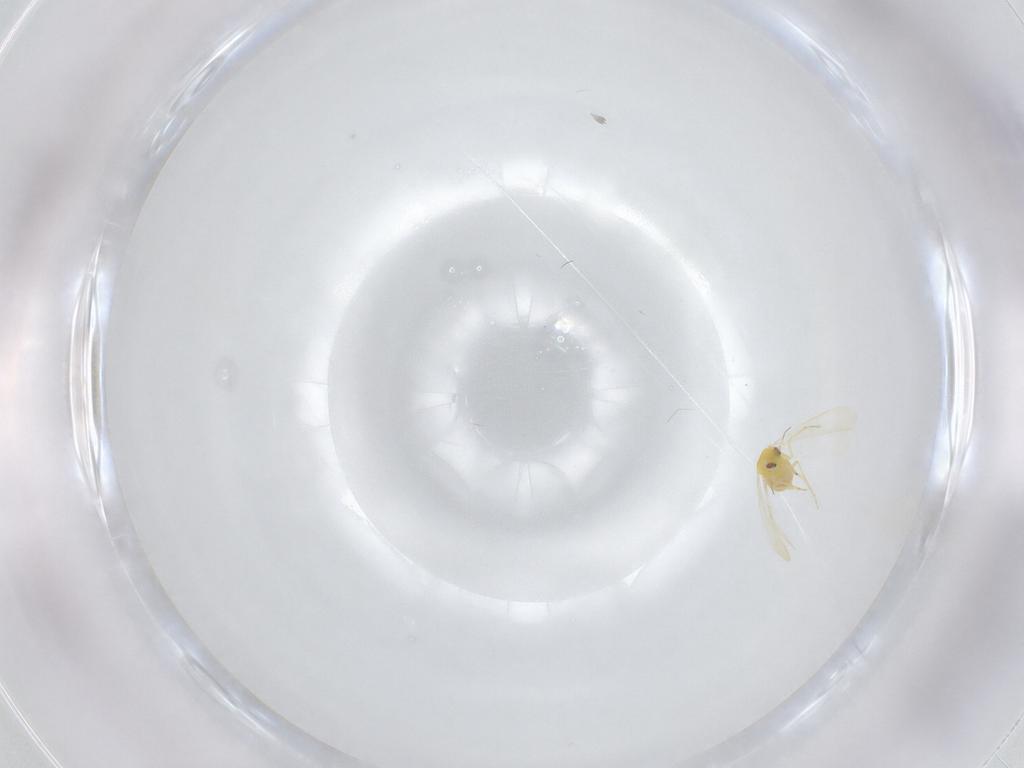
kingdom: Animalia
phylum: Arthropoda
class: Insecta
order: Hemiptera
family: Aleyrodidae
